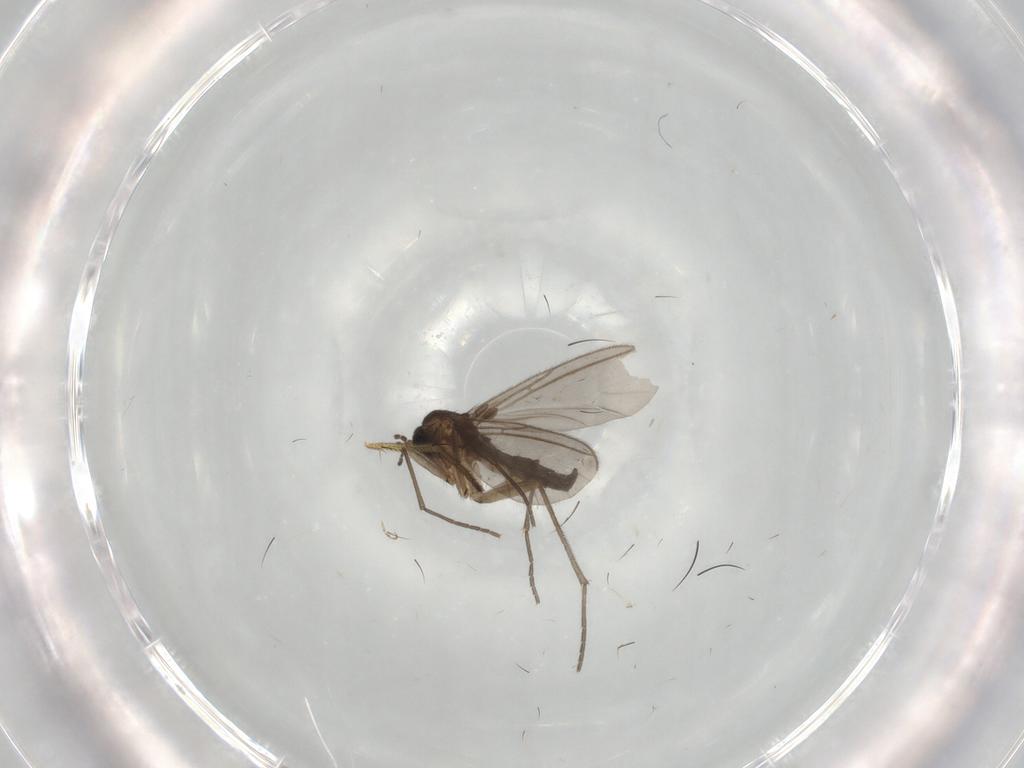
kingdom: Animalia
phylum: Arthropoda
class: Insecta
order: Diptera
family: Sciaridae
